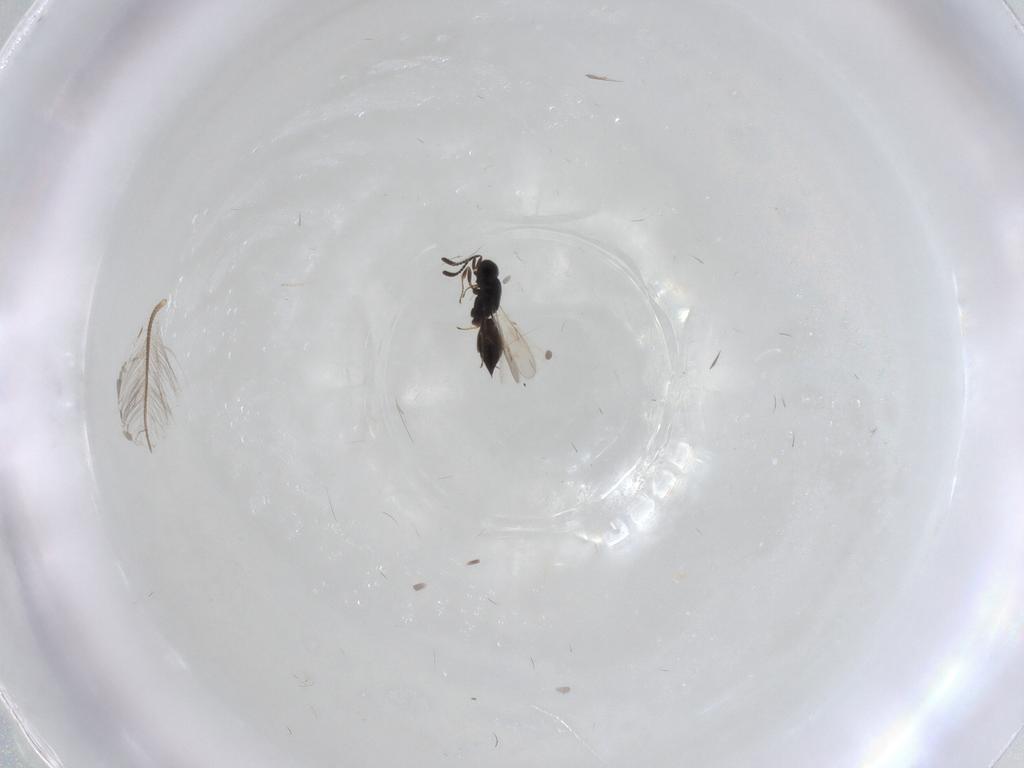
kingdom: Animalia
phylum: Arthropoda
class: Insecta
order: Hymenoptera
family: Scelionidae
